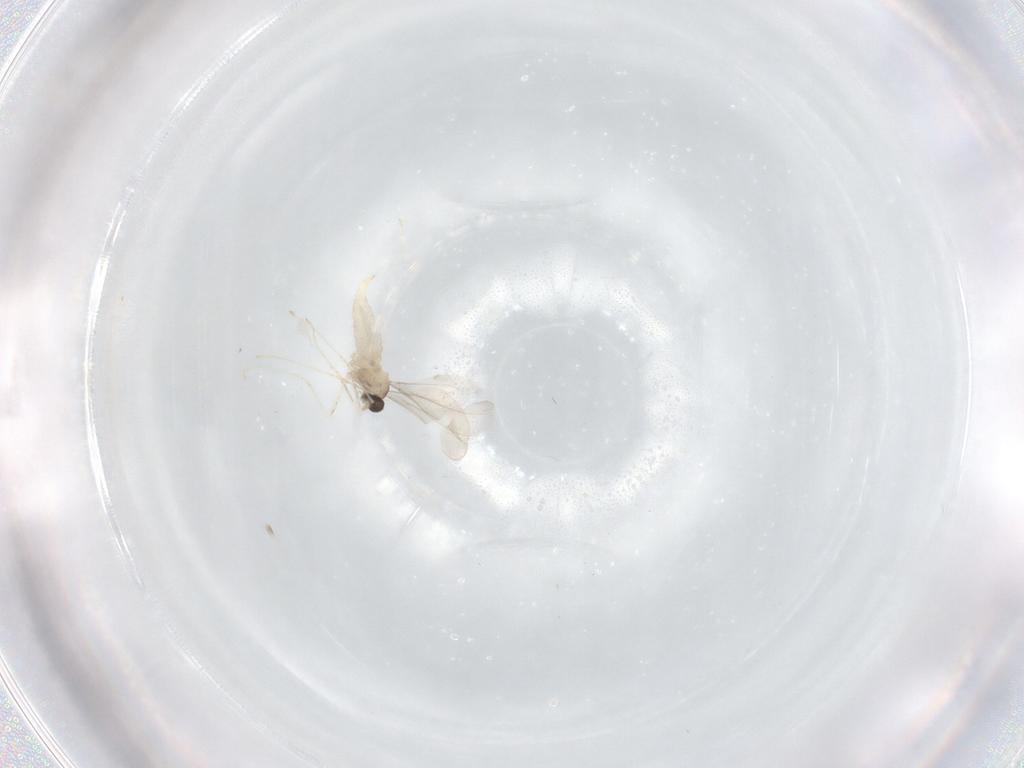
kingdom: Animalia
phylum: Arthropoda
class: Insecta
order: Diptera
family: Cecidomyiidae
